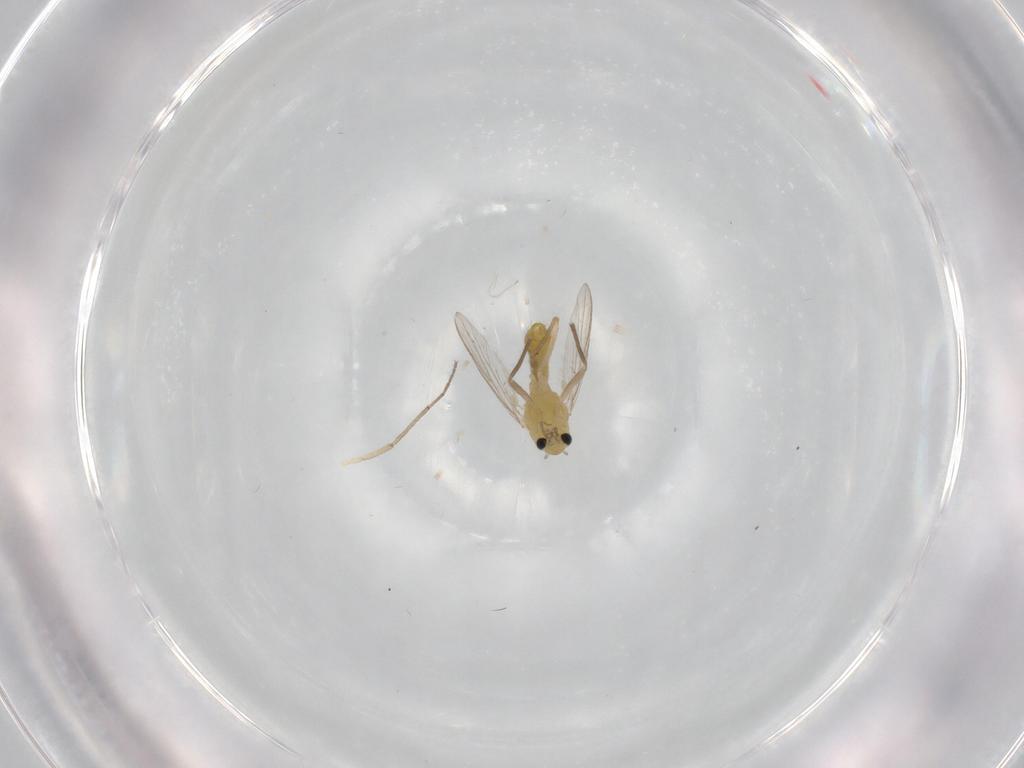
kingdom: Animalia
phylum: Arthropoda
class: Insecta
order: Diptera
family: Chironomidae
